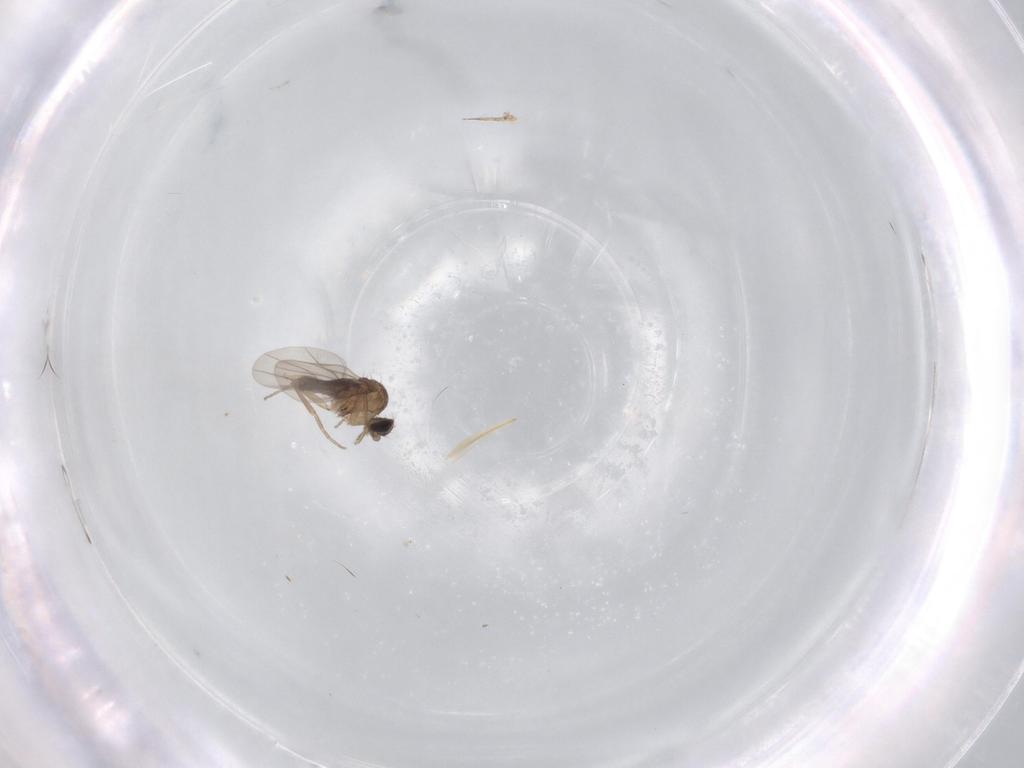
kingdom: Animalia
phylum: Arthropoda
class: Insecta
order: Diptera
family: Phoridae
